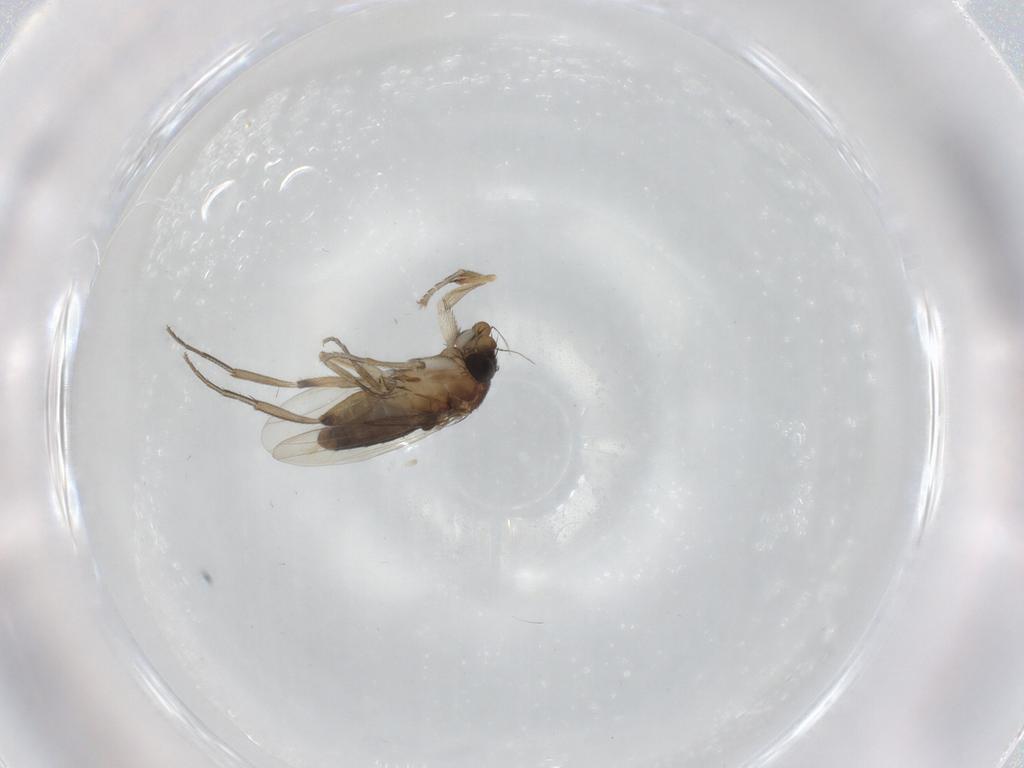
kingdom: Animalia
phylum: Arthropoda
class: Insecta
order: Diptera
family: Phoridae
